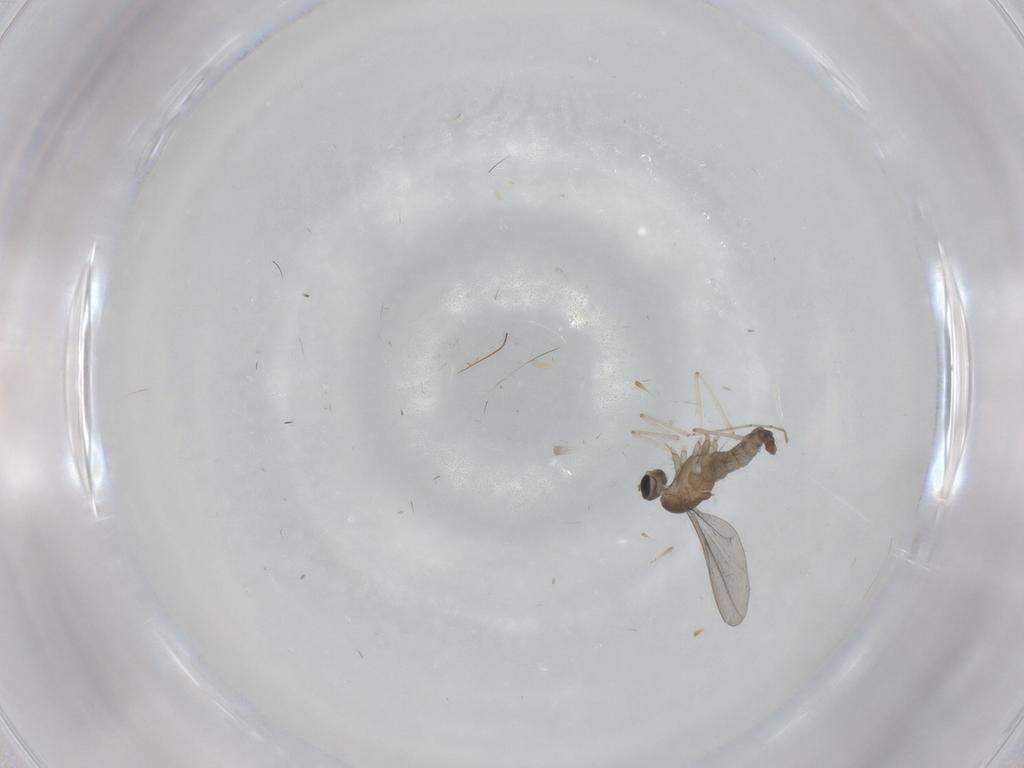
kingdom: Animalia
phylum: Arthropoda
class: Insecta
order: Diptera
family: Cecidomyiidae
